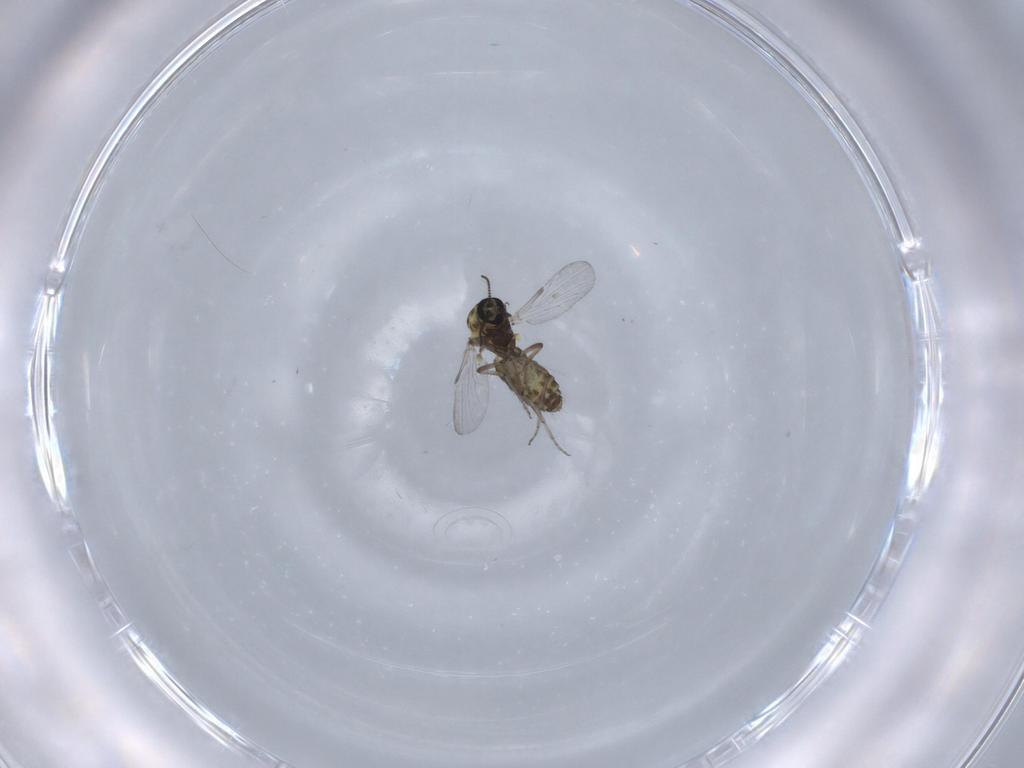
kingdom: Animalia
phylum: Arthropoda
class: Insecta
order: Diptera
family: Ceratopogonidae
